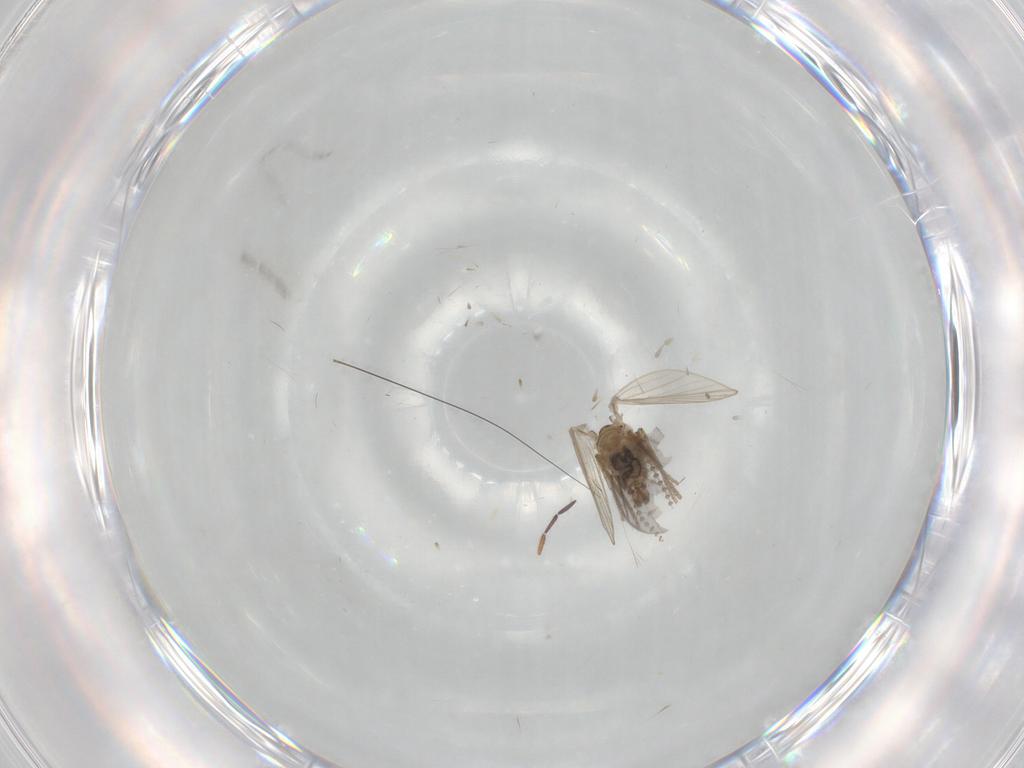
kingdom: Animalia
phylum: Arthropoda
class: Insecta
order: Diptera
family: Psychodidae
